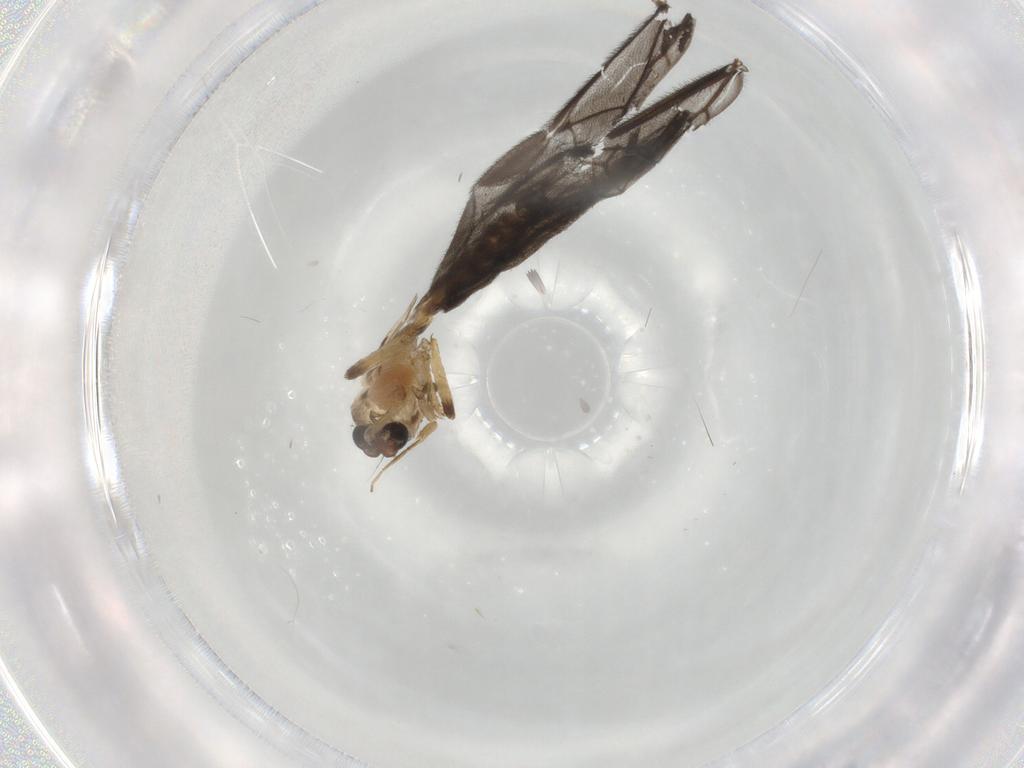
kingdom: Animalia
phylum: Arthropoda
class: Insecta
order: Diptera
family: Ceratopogonidae
